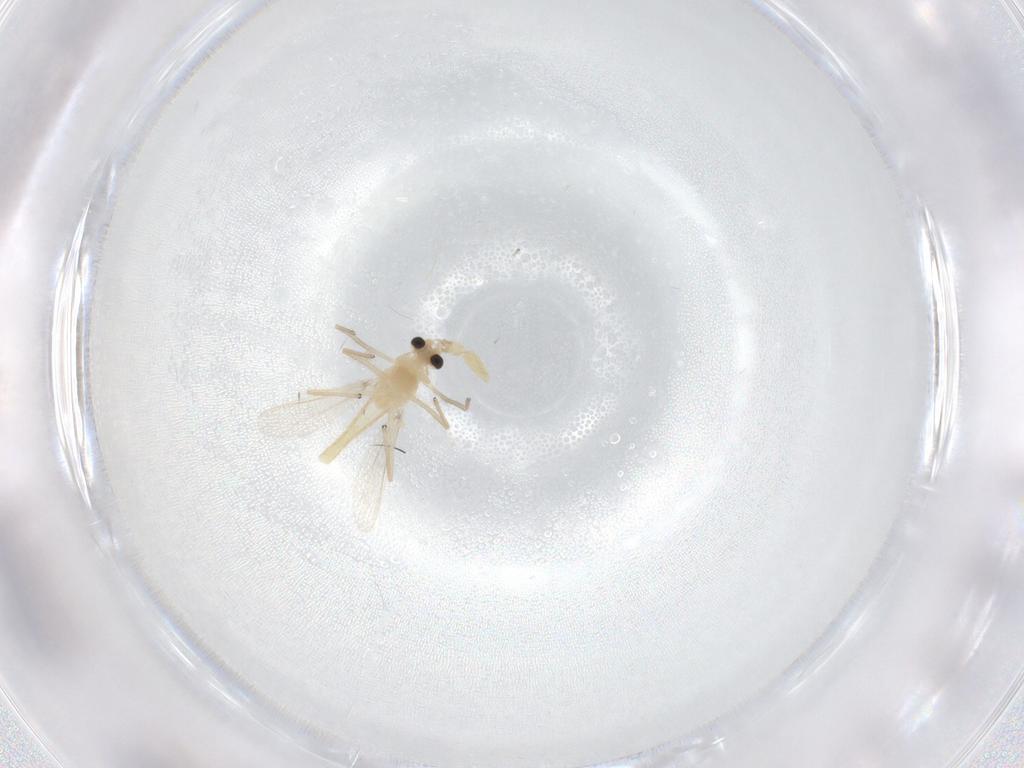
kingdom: Animalia
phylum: Arthropoda
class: Insecta
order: Diptera
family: Chironomidae
